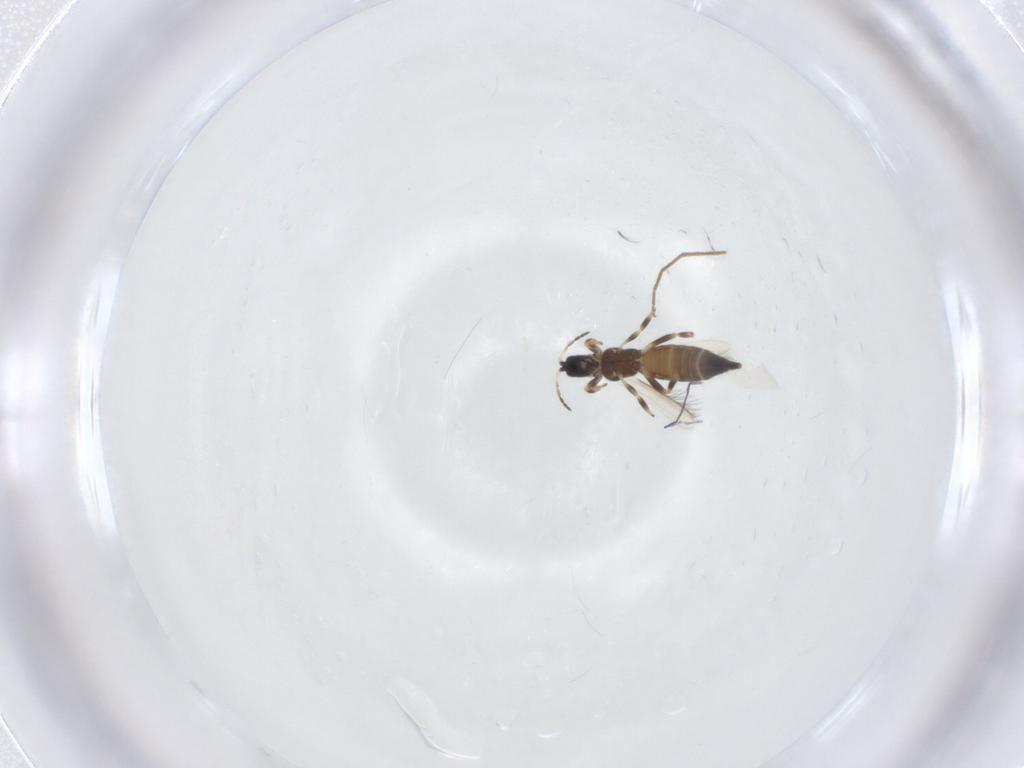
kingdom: Animalia
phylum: Arthropoda
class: Insecta
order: Diptera
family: Chironomidae
